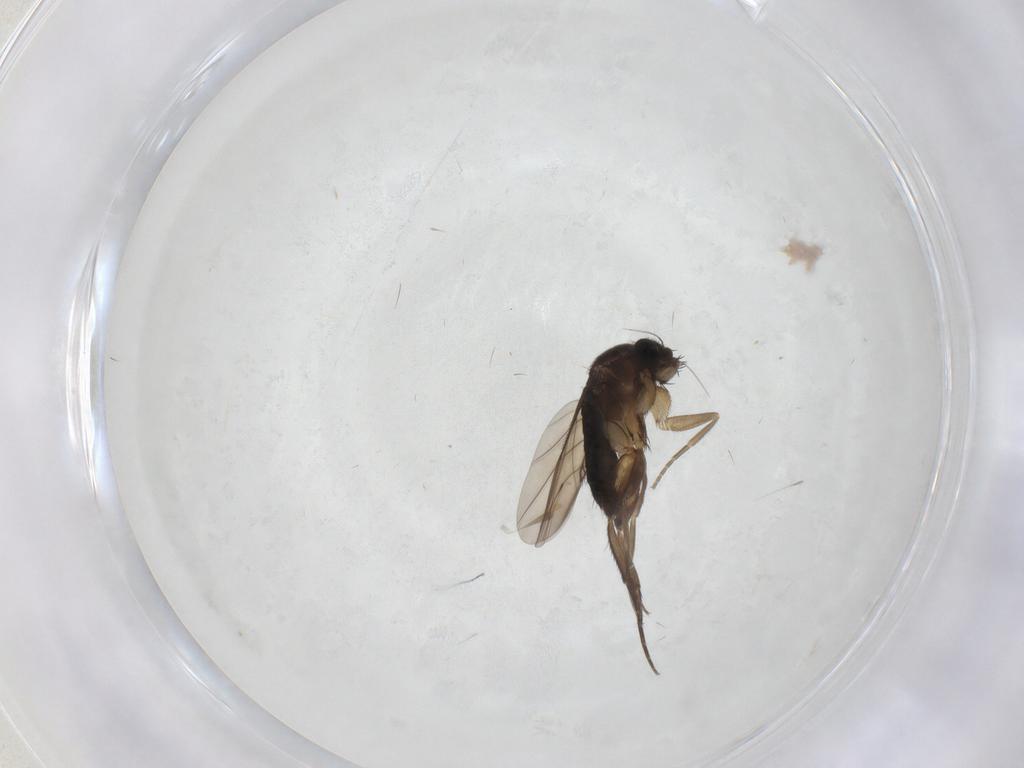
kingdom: Animalia
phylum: Arthropoda
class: Insecta
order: Diptera
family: Phoridae
